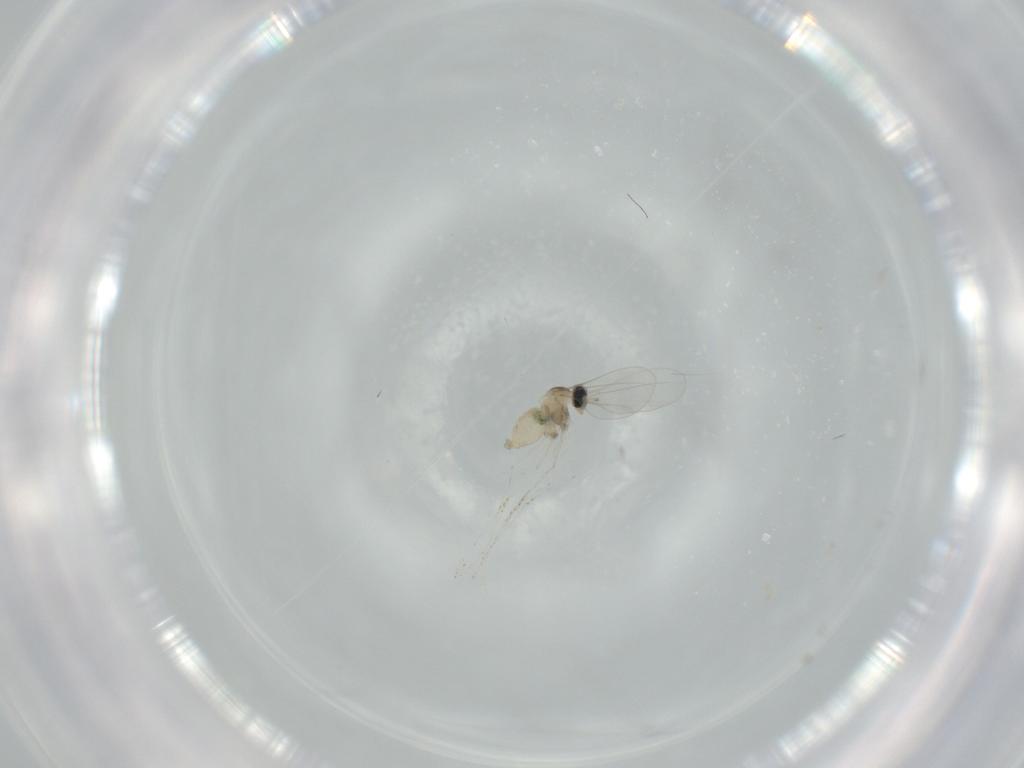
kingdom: Animalia
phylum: Arthropoda
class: Insecta
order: Diptera
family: Cecidomyiidae
